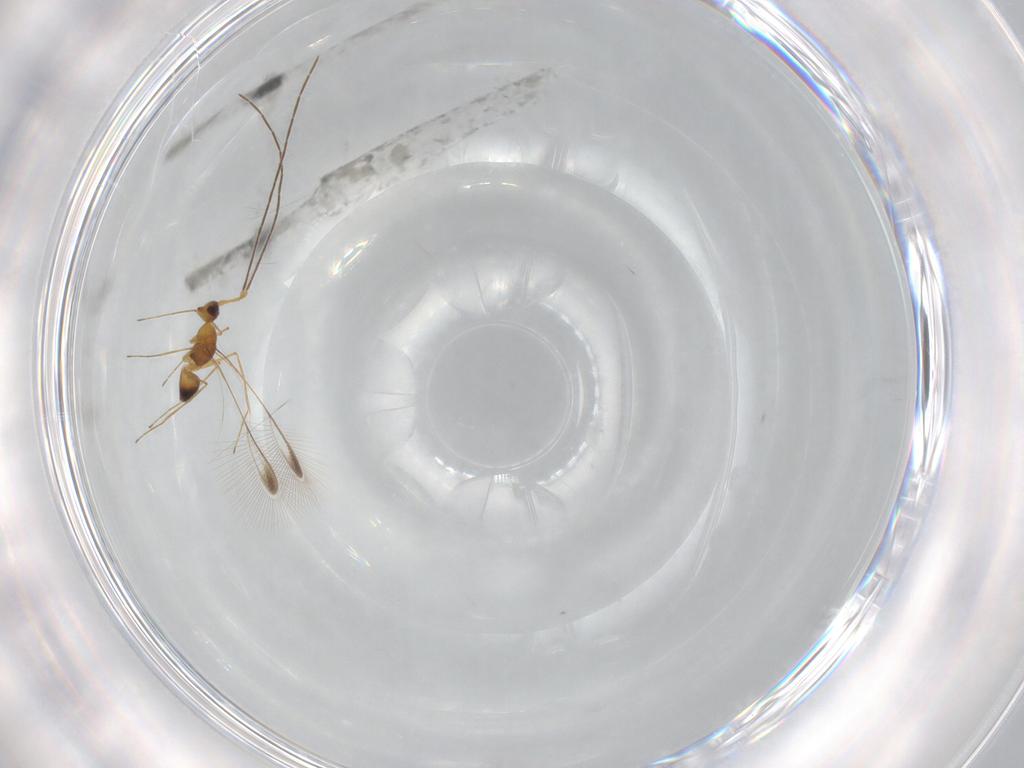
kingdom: Animalia
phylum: Arthropoda
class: Insecta
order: Hymenoptera
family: Mymaridae
